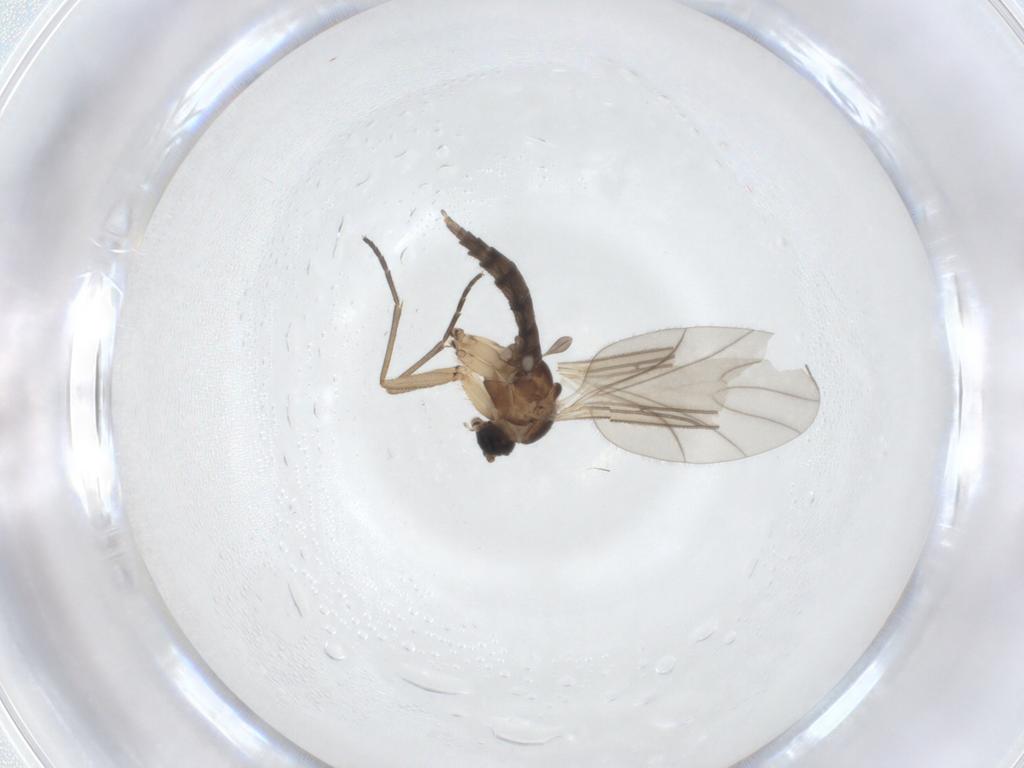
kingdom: Animalia
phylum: Arthropoda
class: Insecta
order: Diptera
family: Sciaridae
